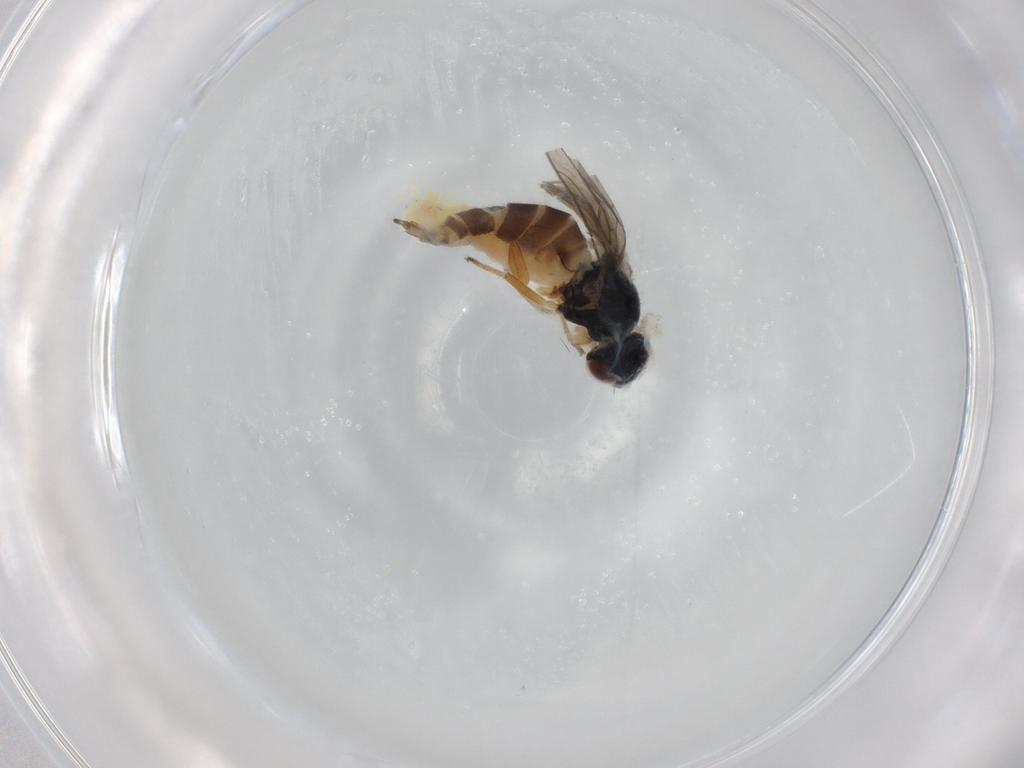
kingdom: Animalia
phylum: Arthropoda
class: Insecta
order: Diptera
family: Chloropidae
